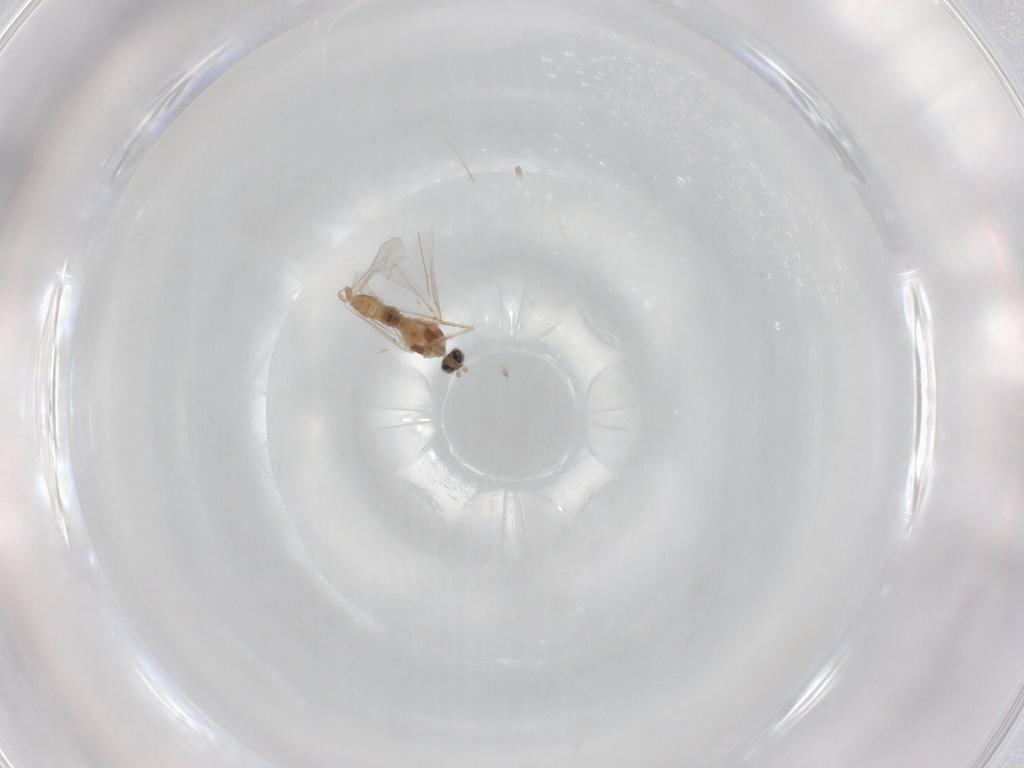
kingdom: Animalia
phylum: Arthropoda
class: Insecta
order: Diptera
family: Cecidomyiidae
